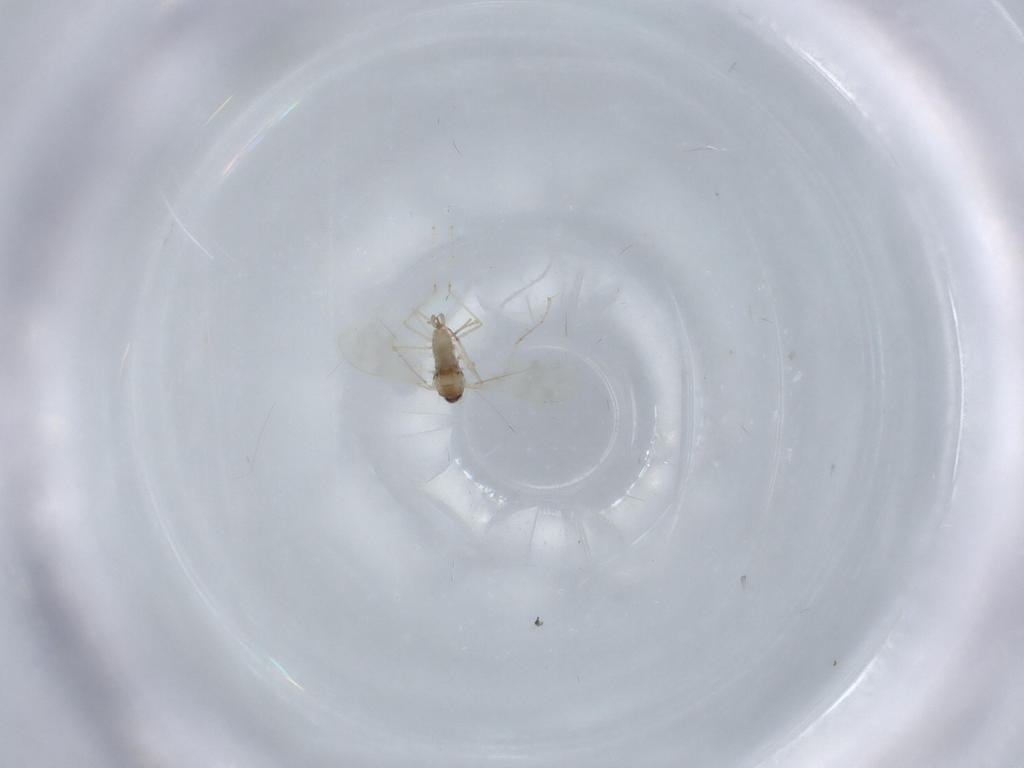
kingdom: Animalia
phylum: Arthropoda
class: Insecta
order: Diptera
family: Cecidomyiidae
